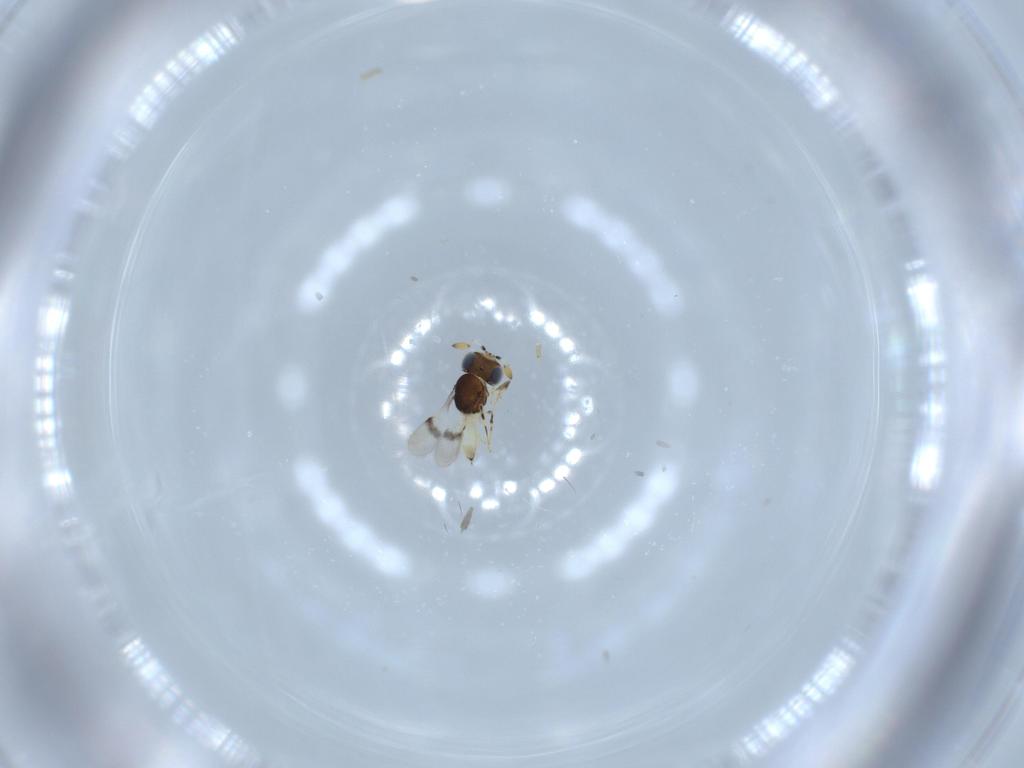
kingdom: Animalia
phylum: Arthropoda
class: Insecta
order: Hymenoptera
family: Scelionidae
